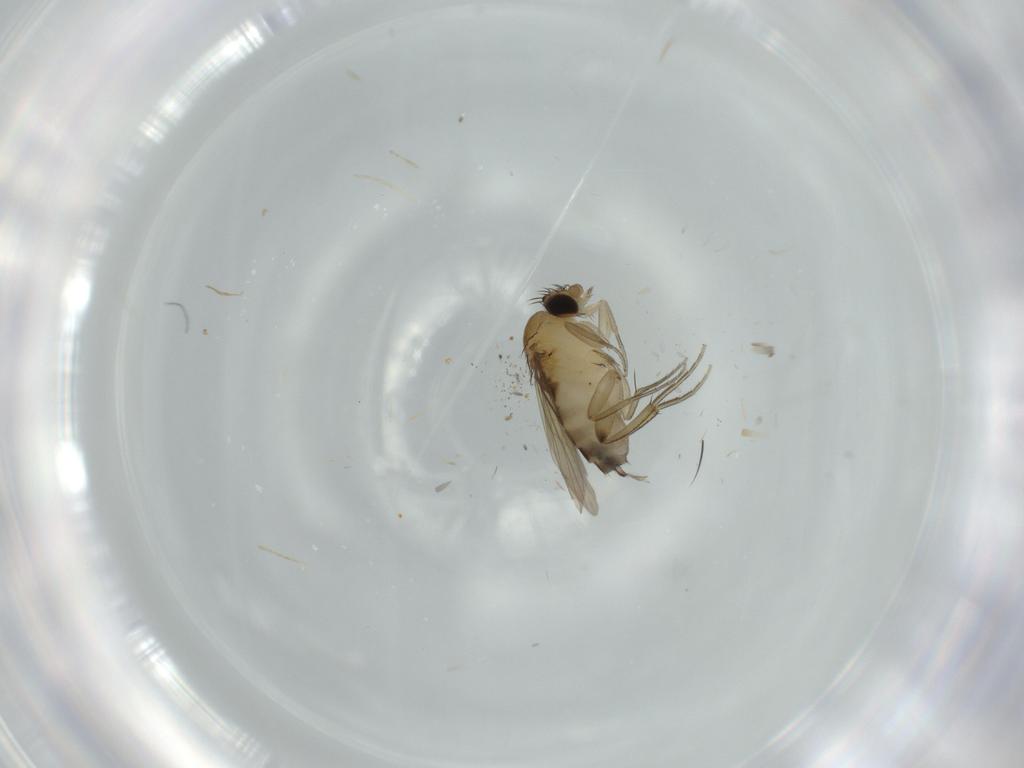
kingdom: Animalia
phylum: Arthropoda
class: Insecta
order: Diptera
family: Phoridae
